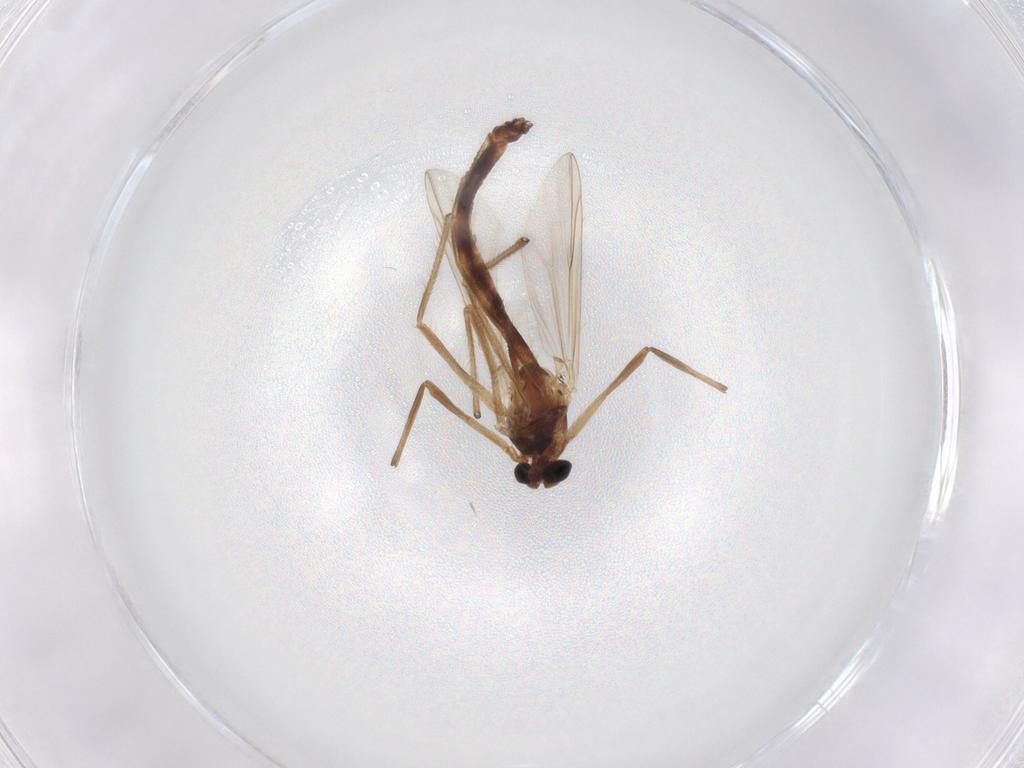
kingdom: Animalia
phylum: Arthropoda
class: Insecta
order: Diptera
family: Chironomidae
